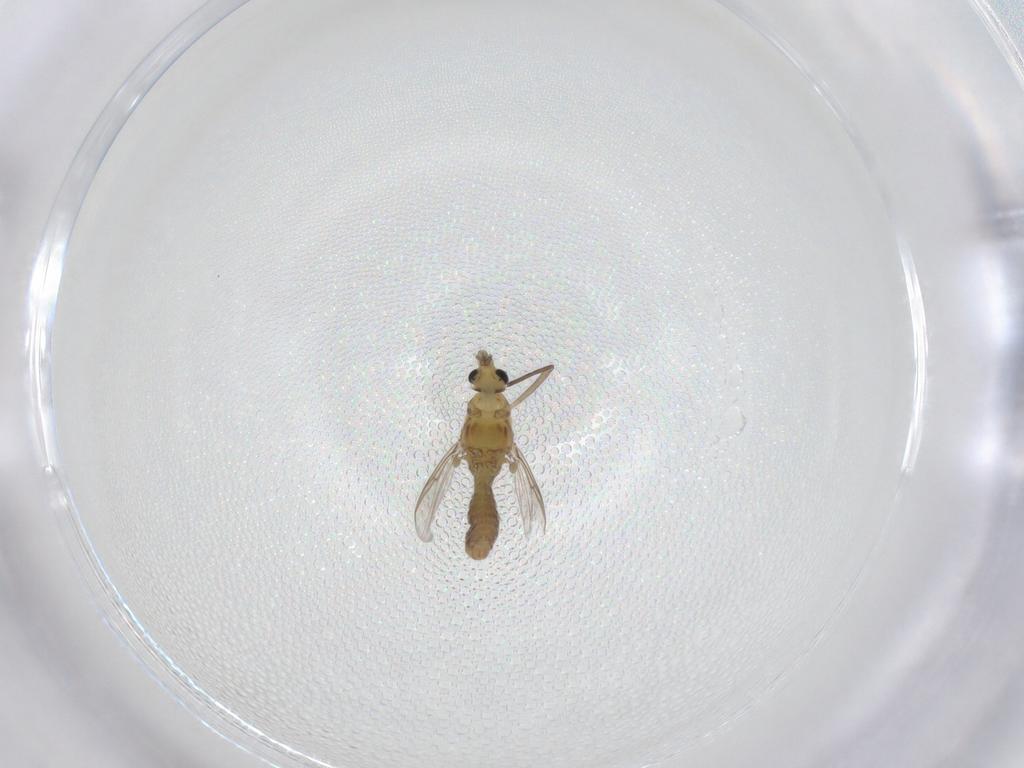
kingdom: Animalia
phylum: Arthropoda
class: Insecta
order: Diptera
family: Chironomidae
